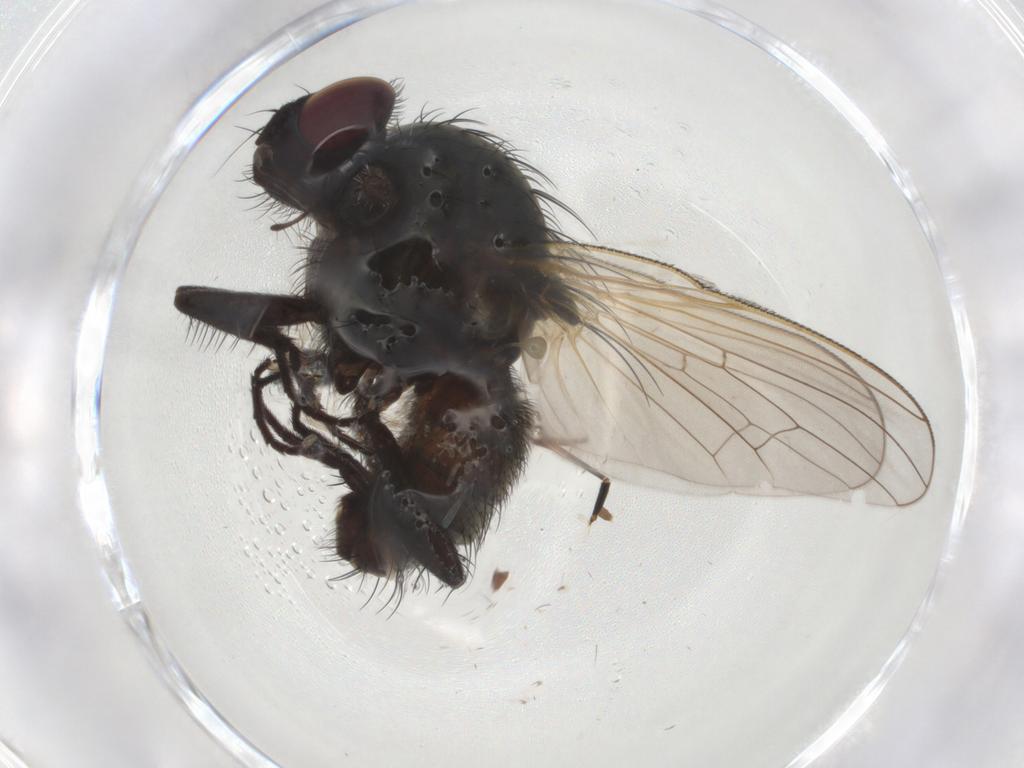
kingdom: Animalia
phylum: Arthropoda
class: Insecta
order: Diptera
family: Anthomyiidae
